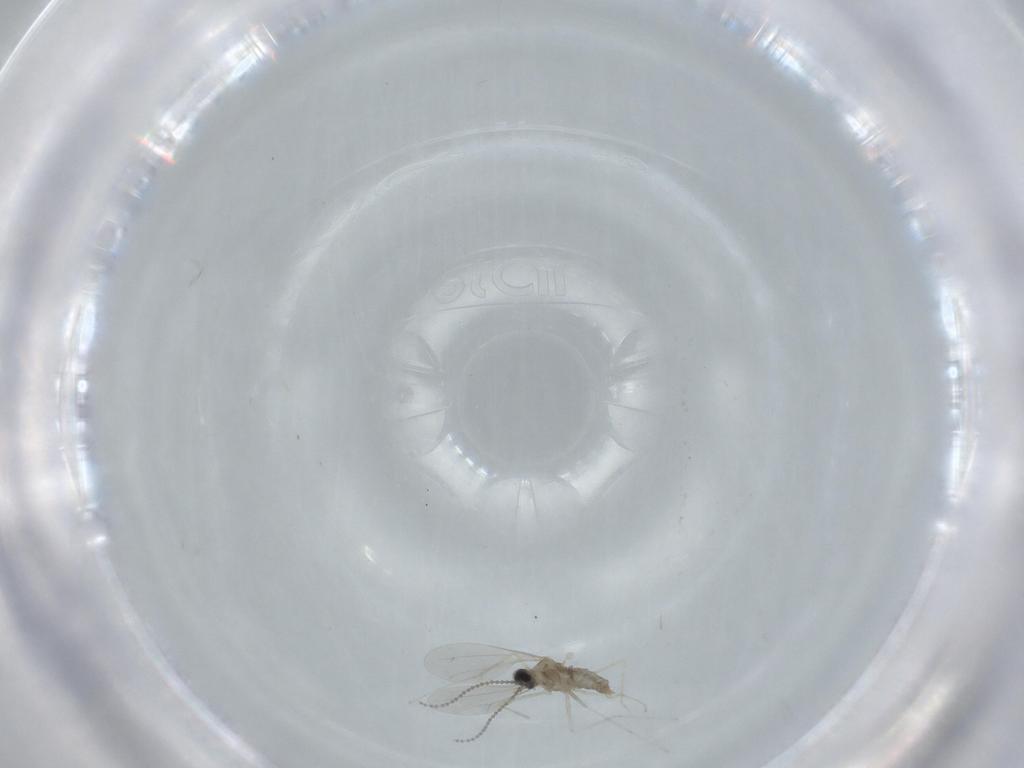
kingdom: Animalia
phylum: Arthropoda
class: Insecta
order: Diptera
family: Cecidomyiidae
